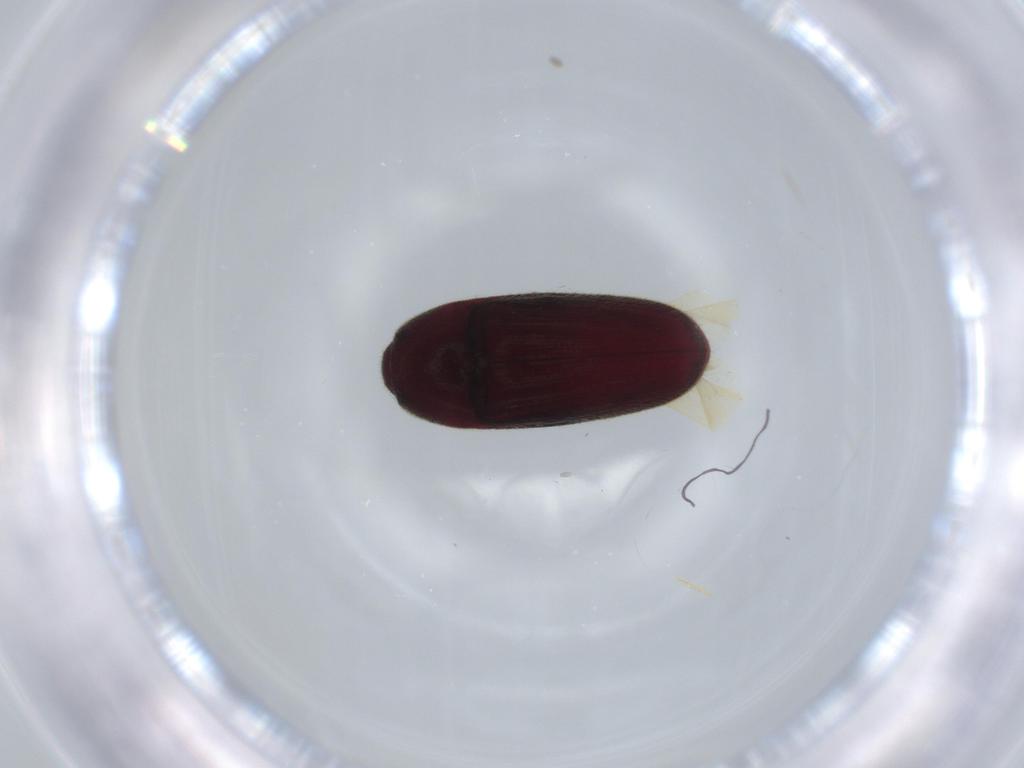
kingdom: Animalia
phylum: Arthropoda
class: Insecta
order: Coleoptera
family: Throscidae
